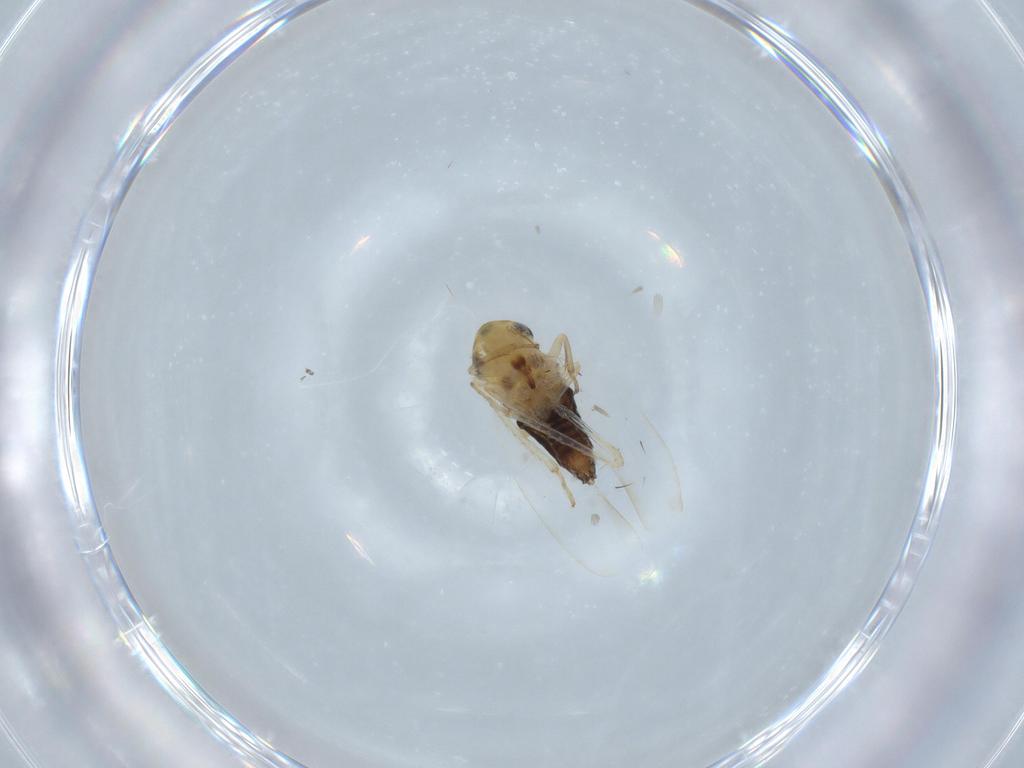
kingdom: Animalia
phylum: Arthropoda
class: Insecta
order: Hemiptera
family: Cicadellidae
